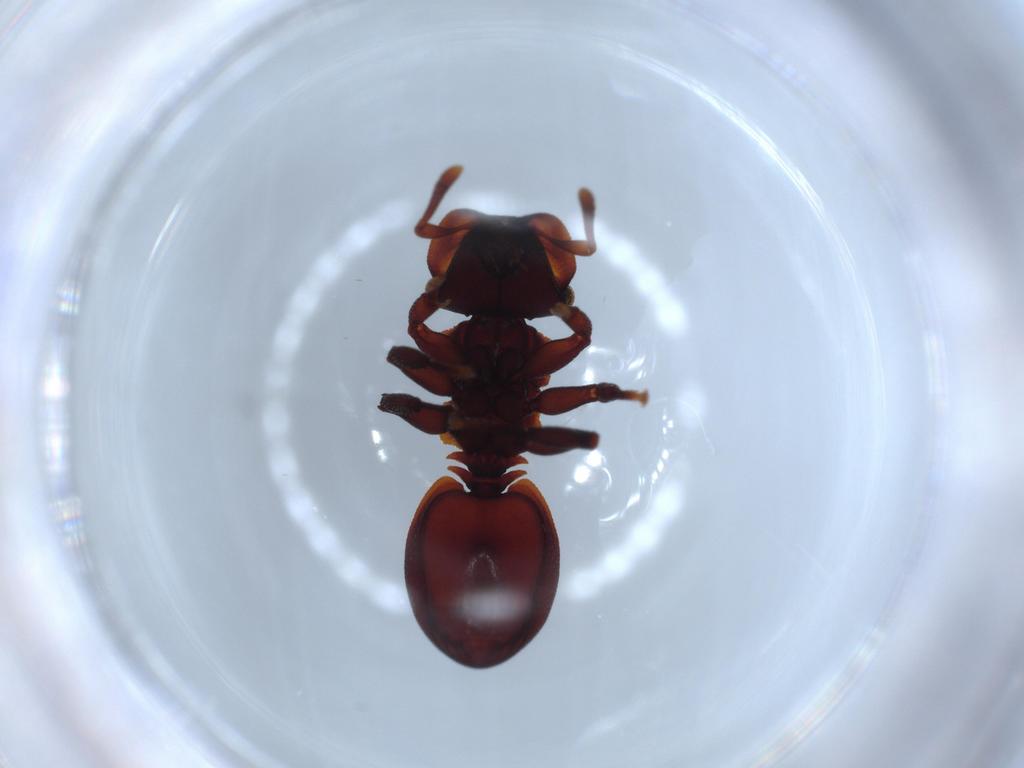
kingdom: Animalia
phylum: Arthropoda
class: Insecta
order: Hymenoptera
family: Formicidae
